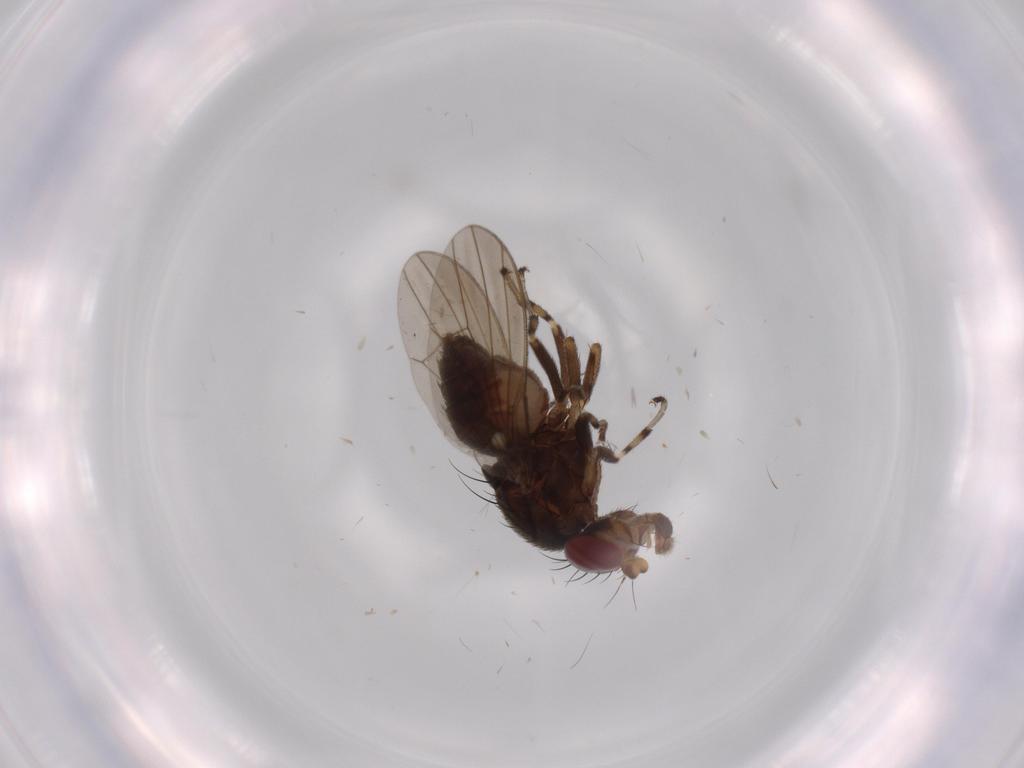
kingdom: Animalia
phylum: Arthropoda
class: Insecta
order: Diptera
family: Heleomyzidae
